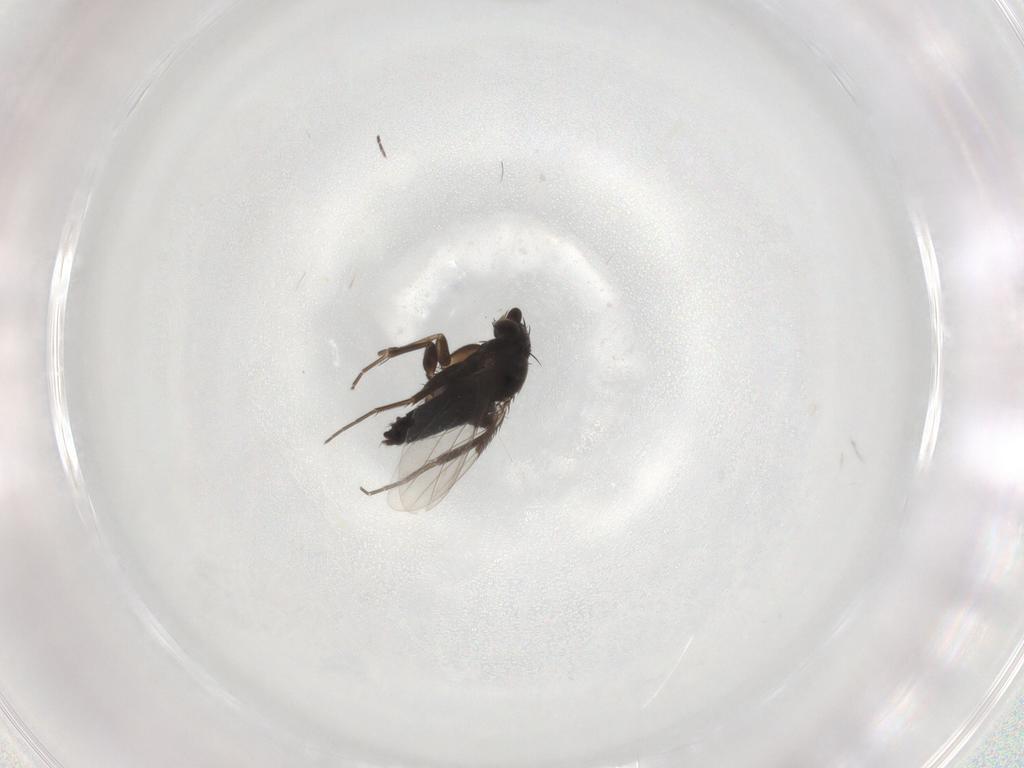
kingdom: Animalia
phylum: Arthropoda
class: Insecta
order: Diptera
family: Phoridae
